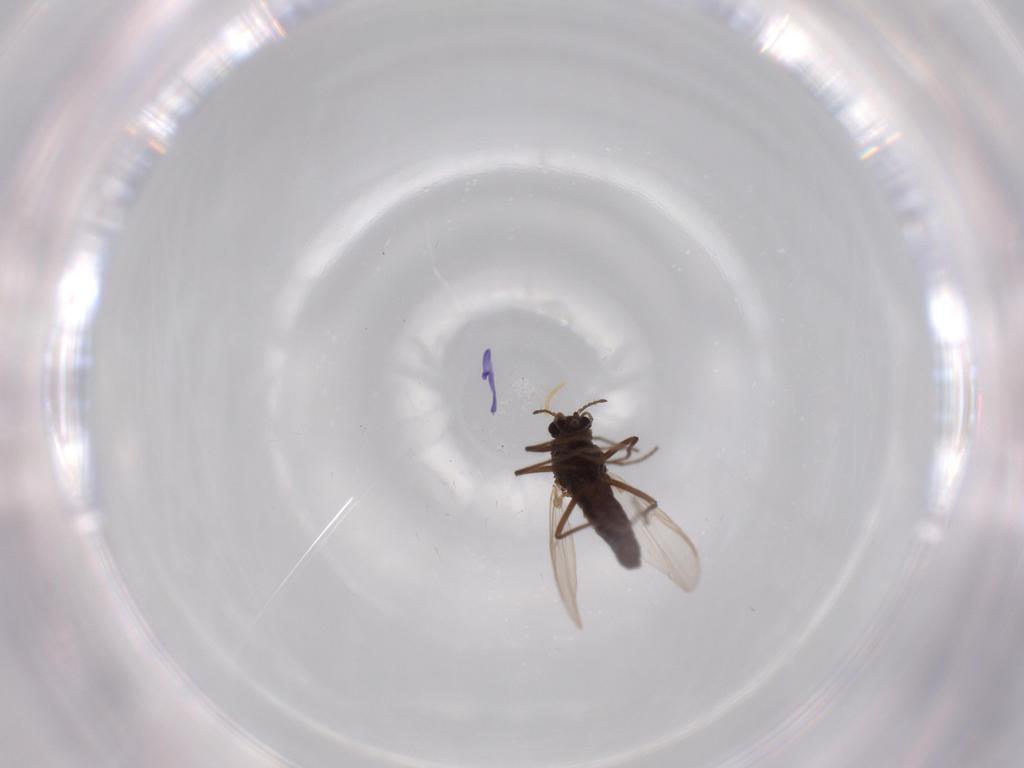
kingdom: Animalia
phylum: Arthropoda
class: Insecta
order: Diptera
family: Chironomidae
